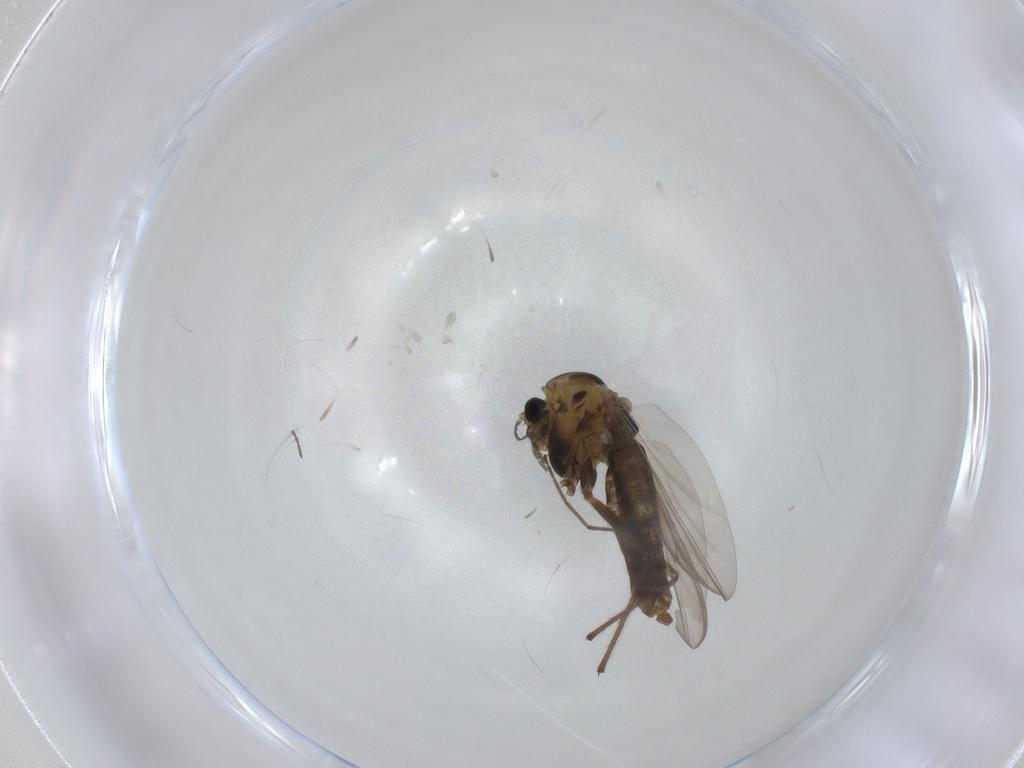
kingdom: Animalia
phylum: Arthropoda
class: Insecta
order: Diptera
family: Chironomidae
